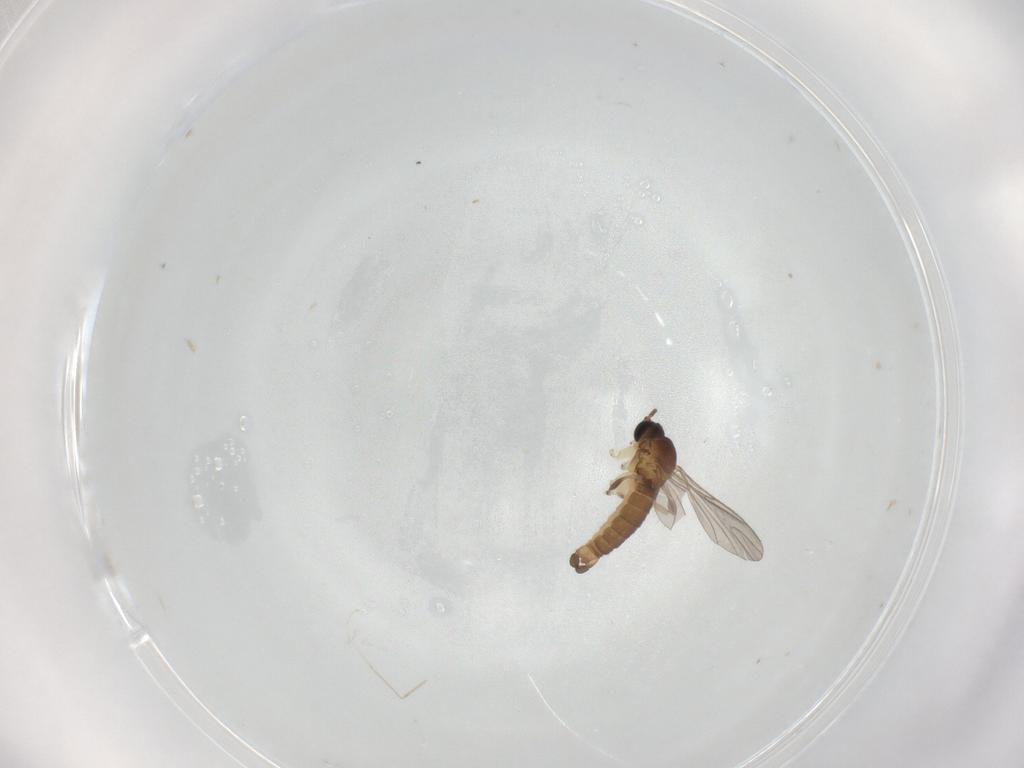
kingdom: Animalia
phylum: Arthropoda
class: Insecta
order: Diptera
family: Sciaridae
